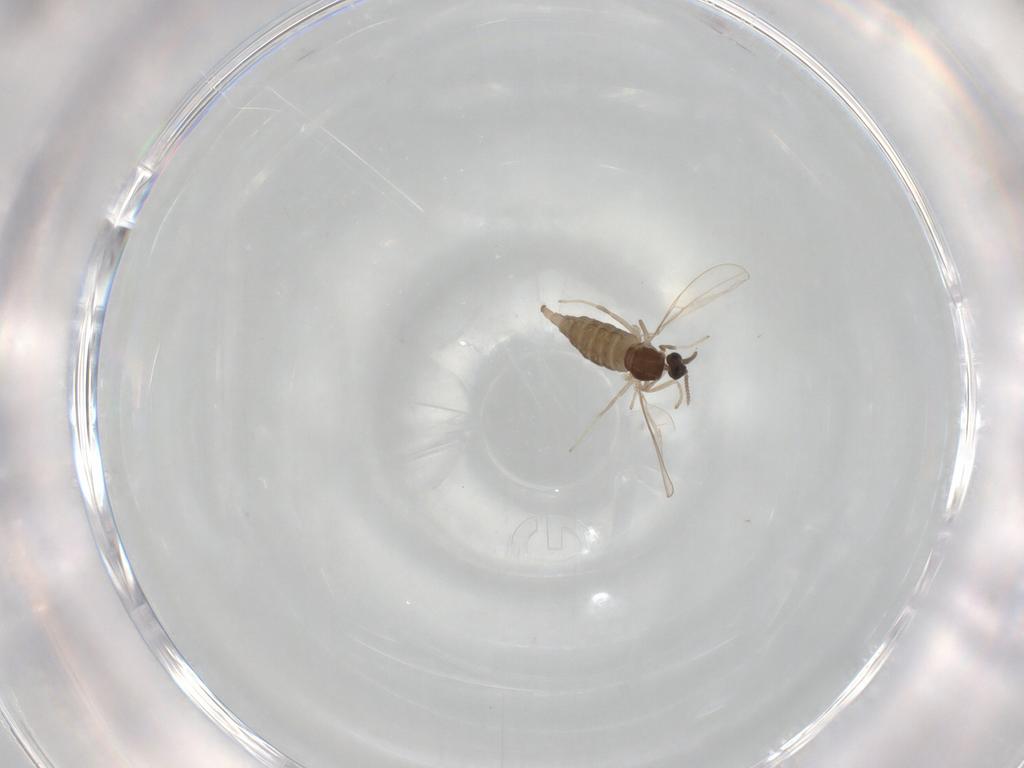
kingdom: Animalia
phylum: Arthropoda
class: Insecta
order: Diptera
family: Cecidomyiidae
